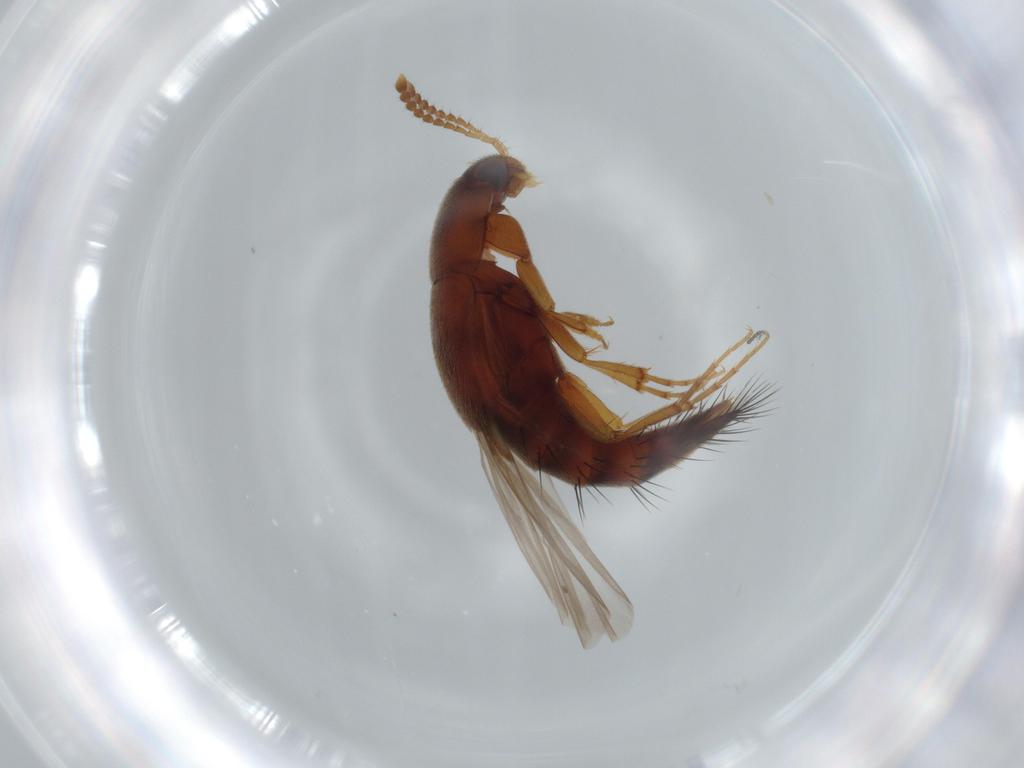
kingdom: Animalia
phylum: Arthropoda
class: Insecta
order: Coleoptera
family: Staphylinidae
